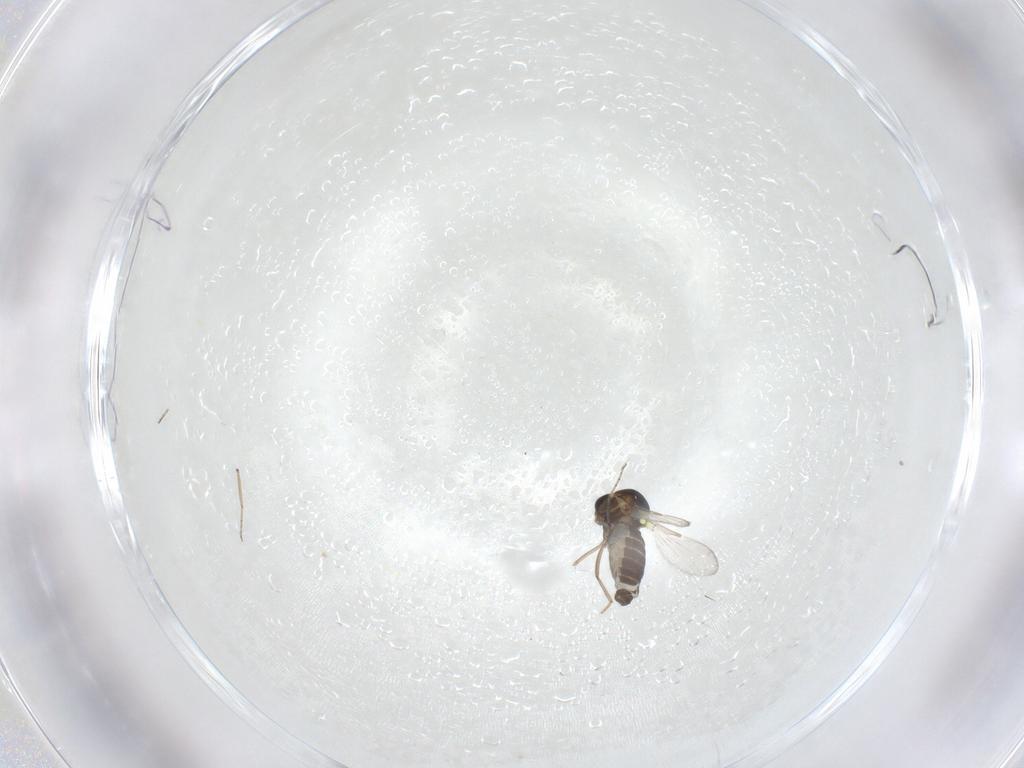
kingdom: Animalia
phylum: Arthropoda
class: Insecta
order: Diptera
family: Ceratopogonidae
